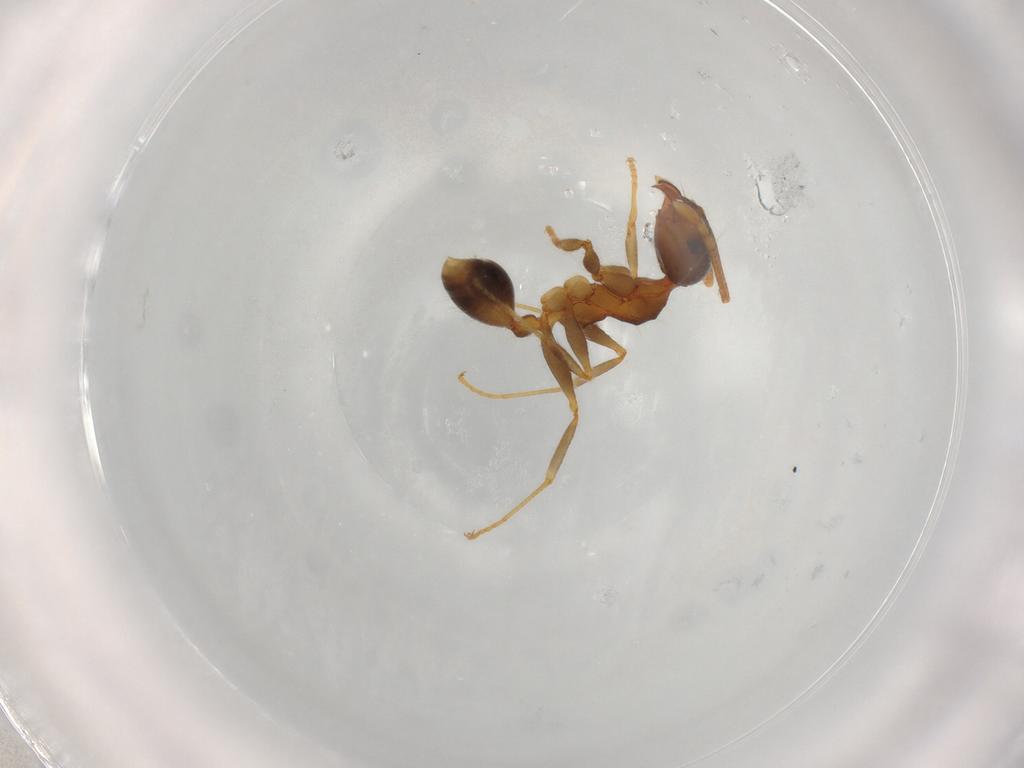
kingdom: Animalia
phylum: Arthropoda
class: Insecta
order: Hymenoptera
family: Formicidae
